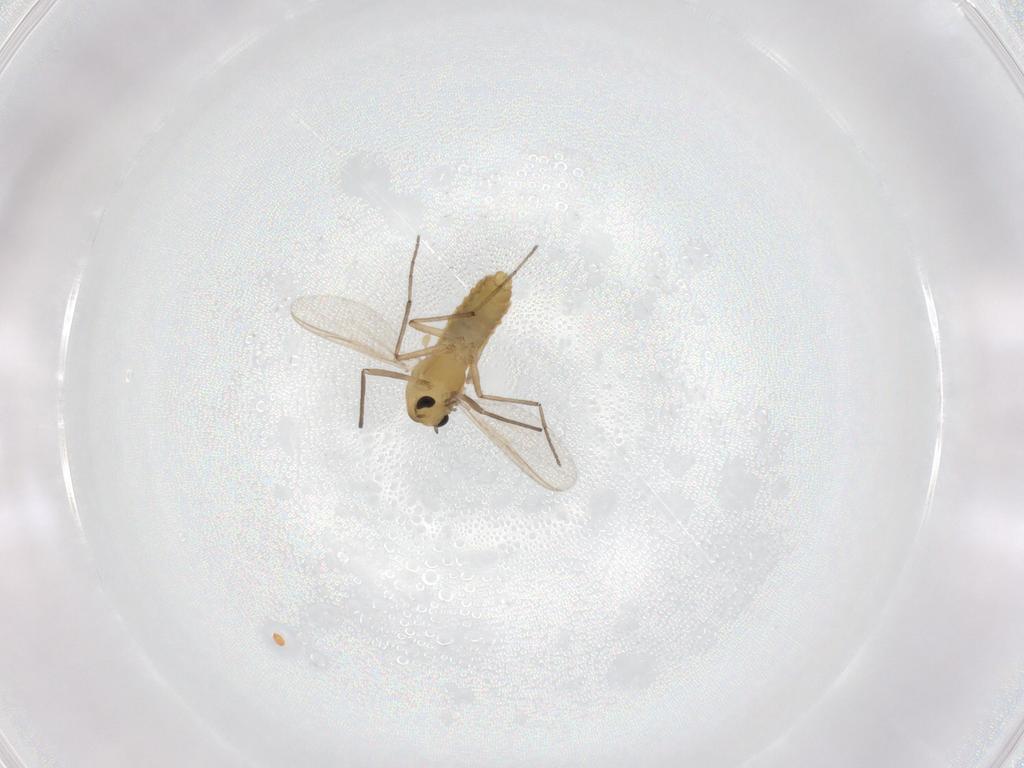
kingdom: Animalia
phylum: Arthropoda
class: Insecta
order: Diptera
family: Chironomidae
